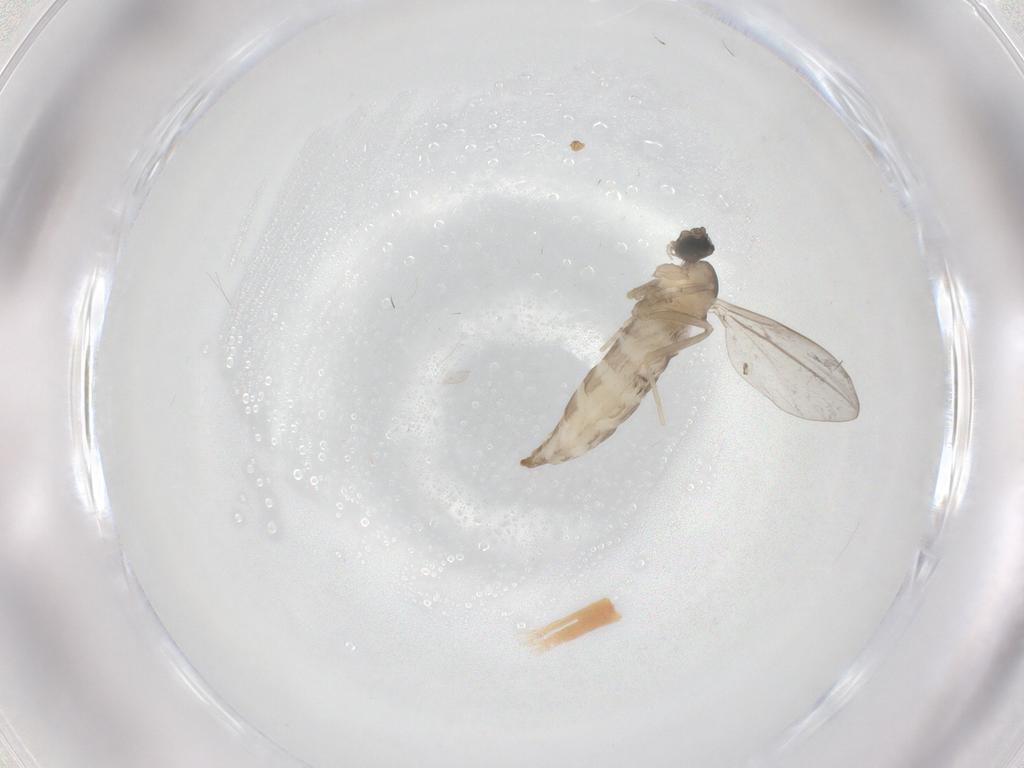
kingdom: Animalia
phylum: Arthropoda
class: Insecta
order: Diptera
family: Cecidomyiidae
